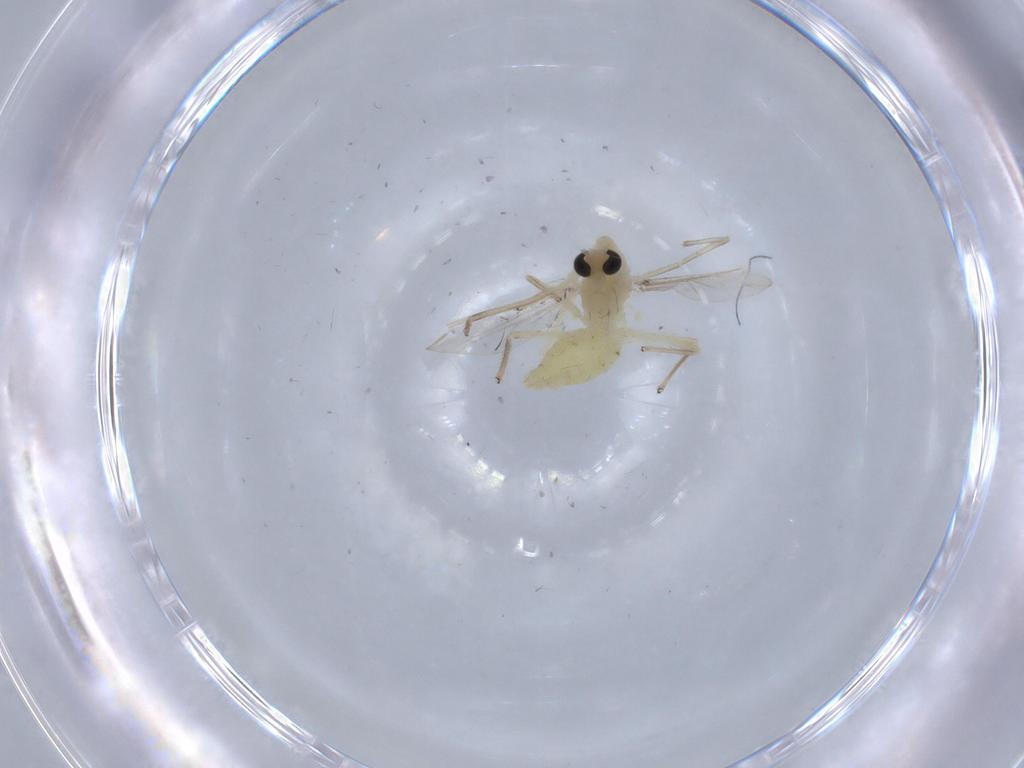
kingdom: Animalia
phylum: Arthropoda
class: Insecta
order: Diptera
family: Chironomidae
